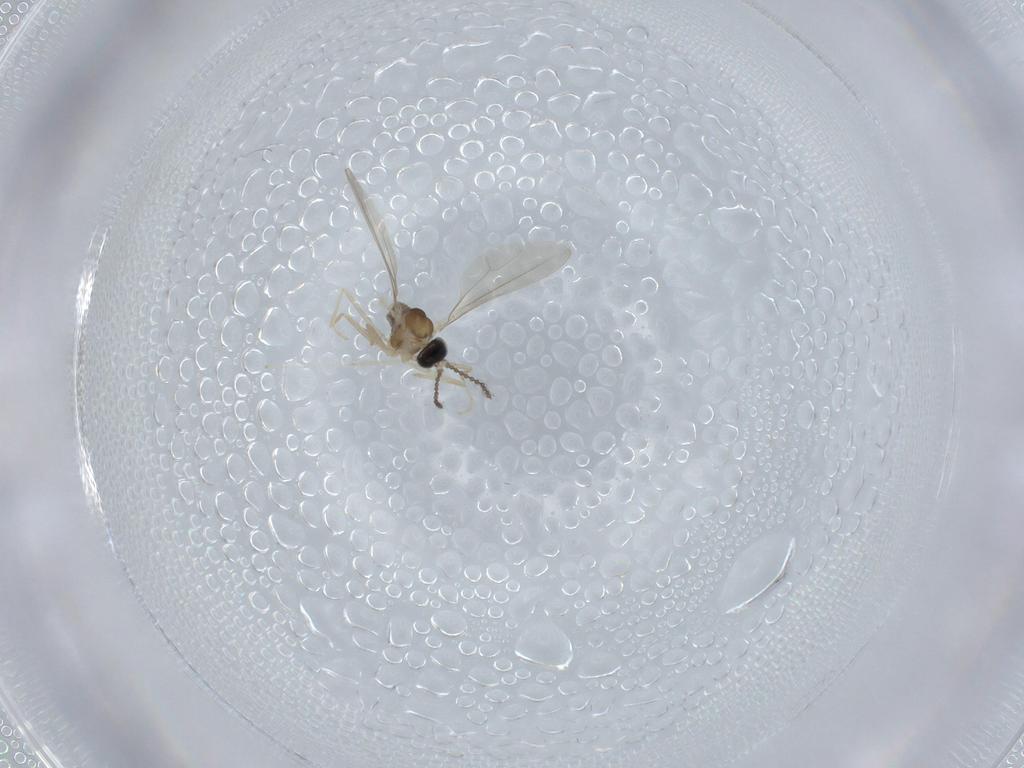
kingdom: Animalia
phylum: Arthropoda
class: Insecta
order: Diptera
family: Cecidomyiidae
